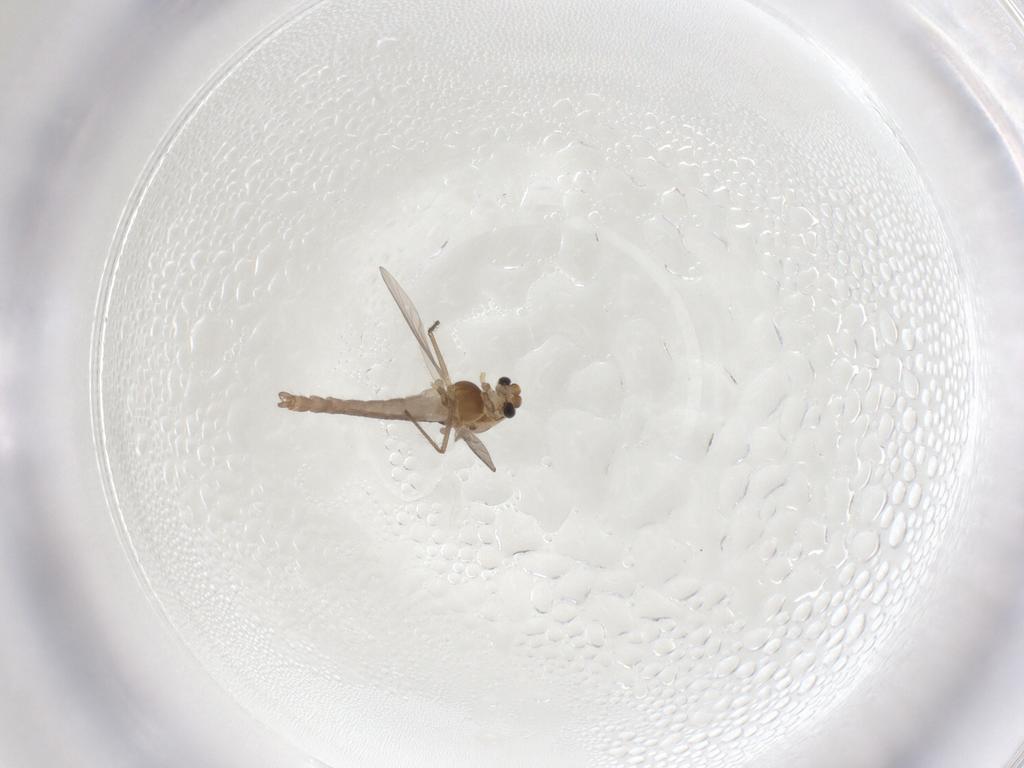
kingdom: Animalia
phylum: Arthropoda
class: Insecta
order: Diptera
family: Chironomidae
